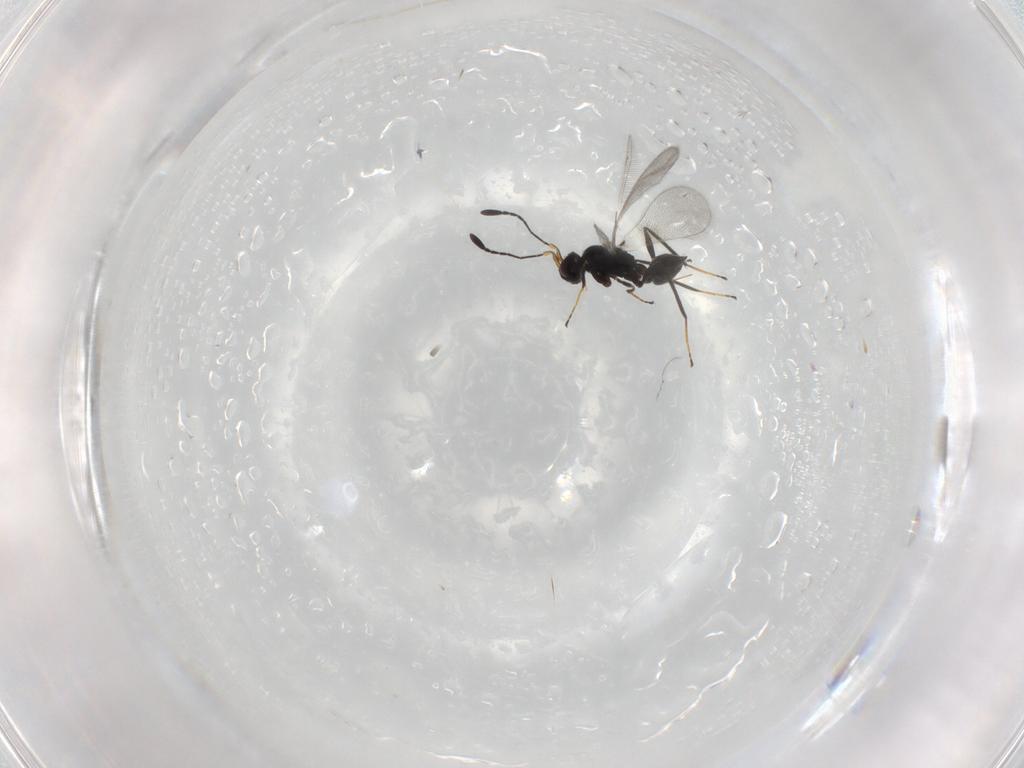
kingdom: Animalia
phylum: Arthropoda
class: Insecta
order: Hymenoptera
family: Mymaridae
